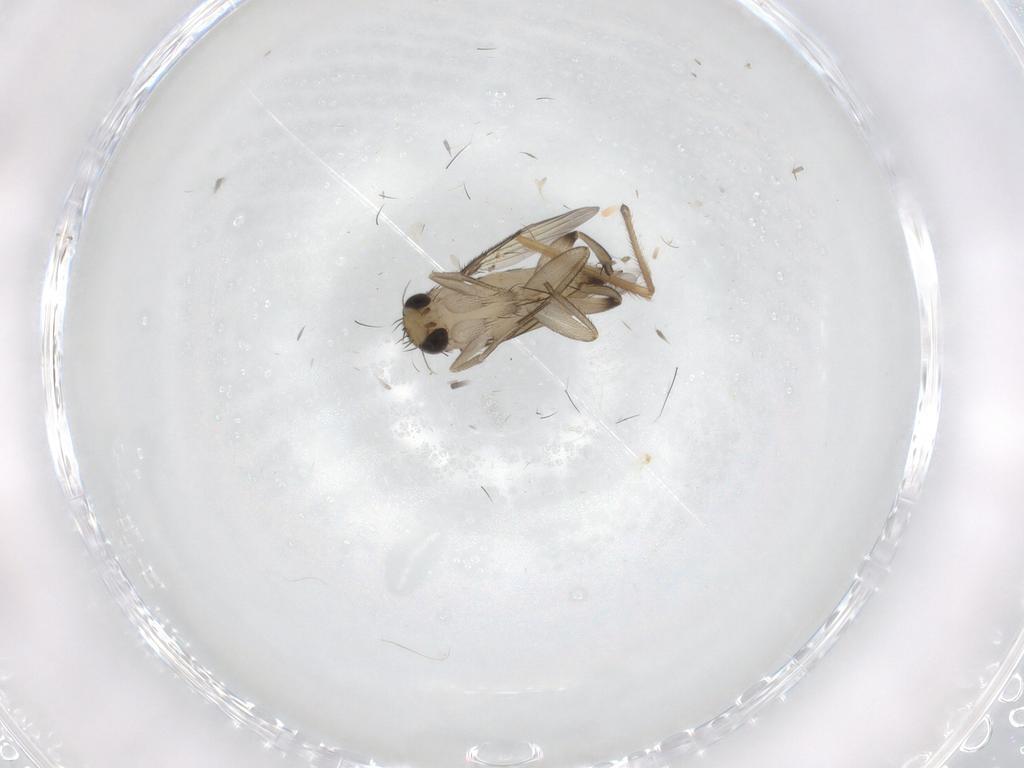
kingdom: Animalia
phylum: Arthropoda
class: Insecta
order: Diptera
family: Phoridae
